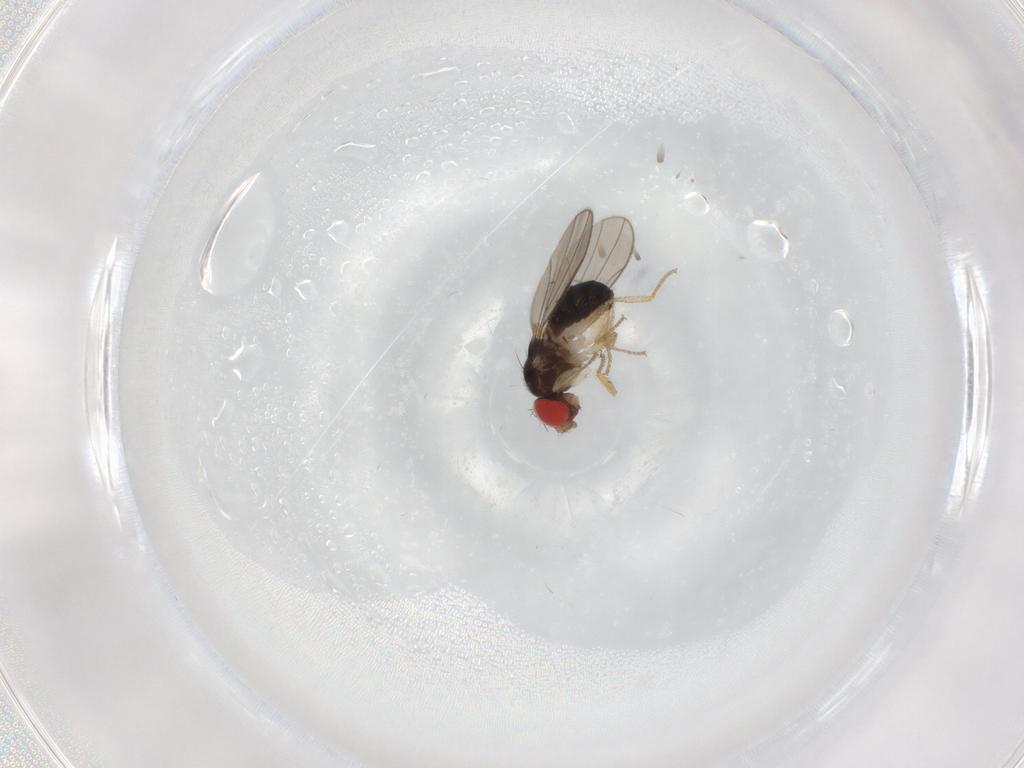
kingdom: Animalia
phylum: Arthropoda
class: Insecta
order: Diptera
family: Drosophilidae
